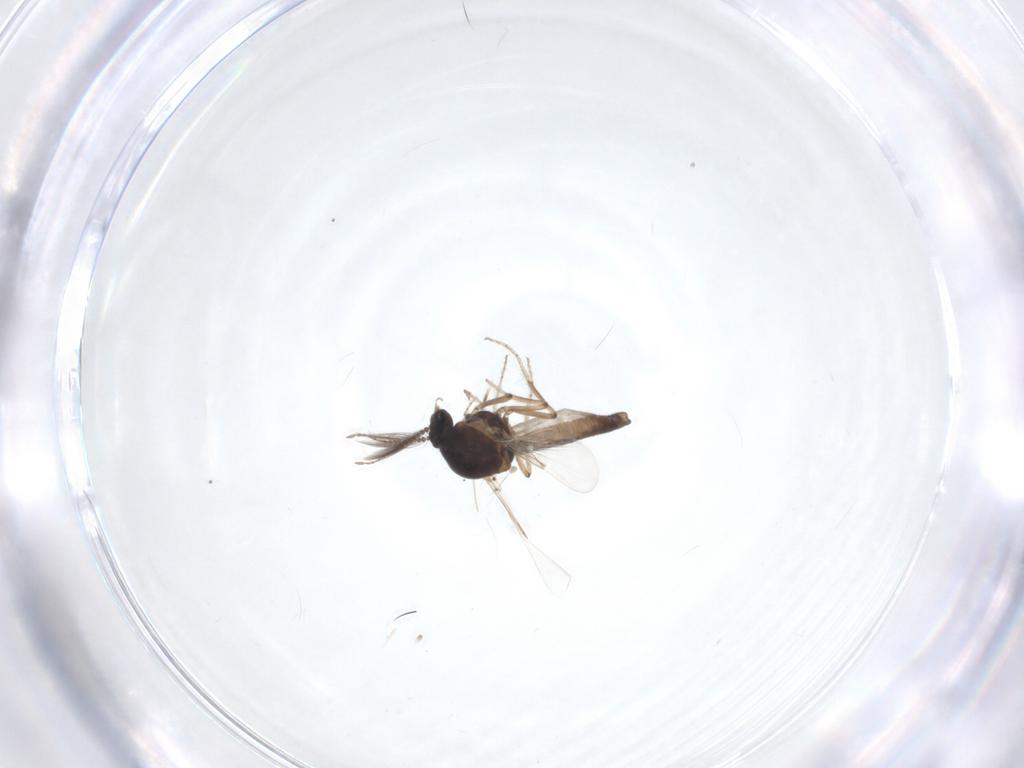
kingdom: Animalia
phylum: Arthropoda
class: Insecta
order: Diptera
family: Ceratopogonidae
